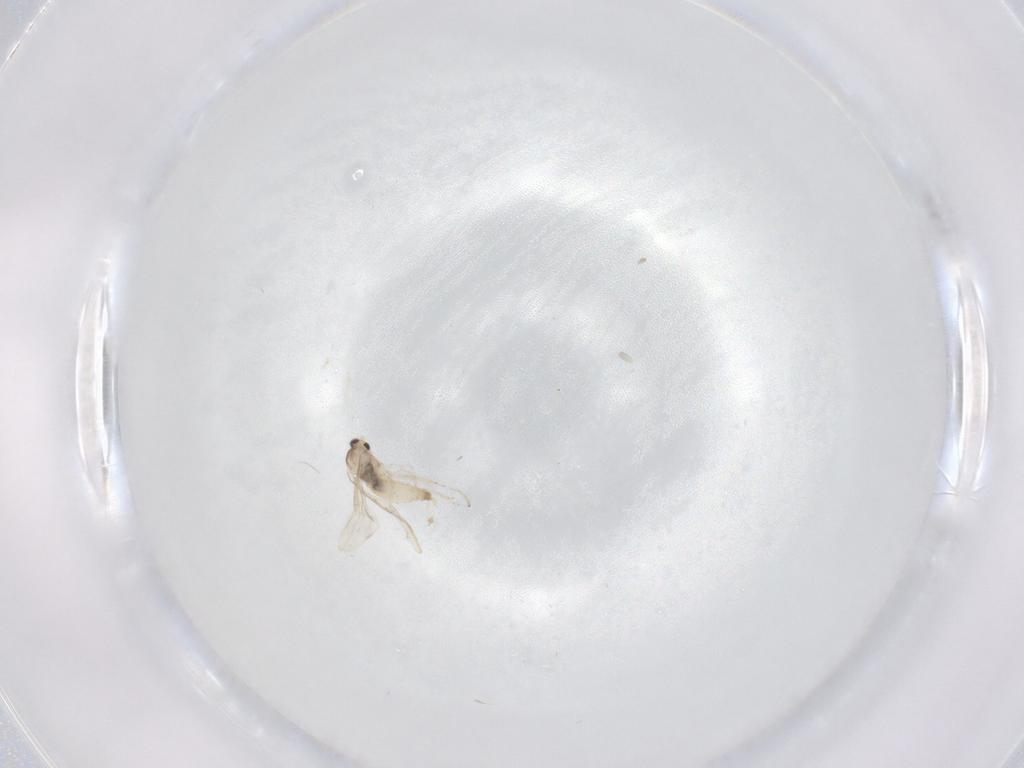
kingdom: Animalia
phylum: Arthropoda
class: Insecta
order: Diptera
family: Cecidomyiidae
